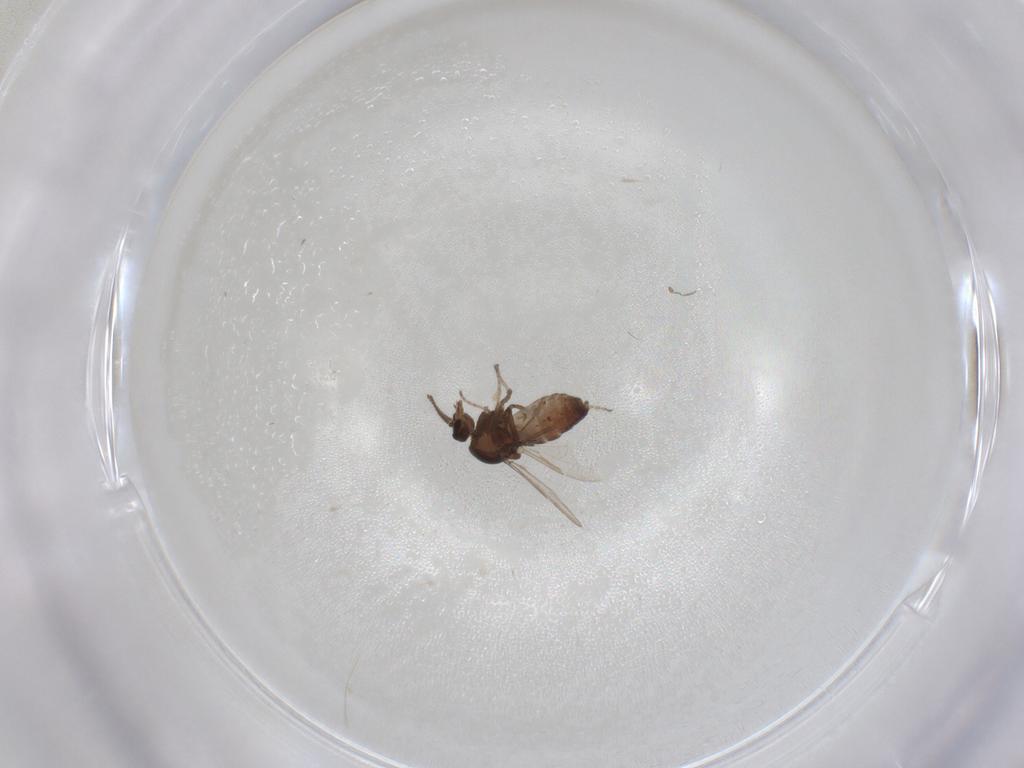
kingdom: Animalia
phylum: Arthropoda
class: Insecta
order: Diptera
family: Ceratopogonidae
